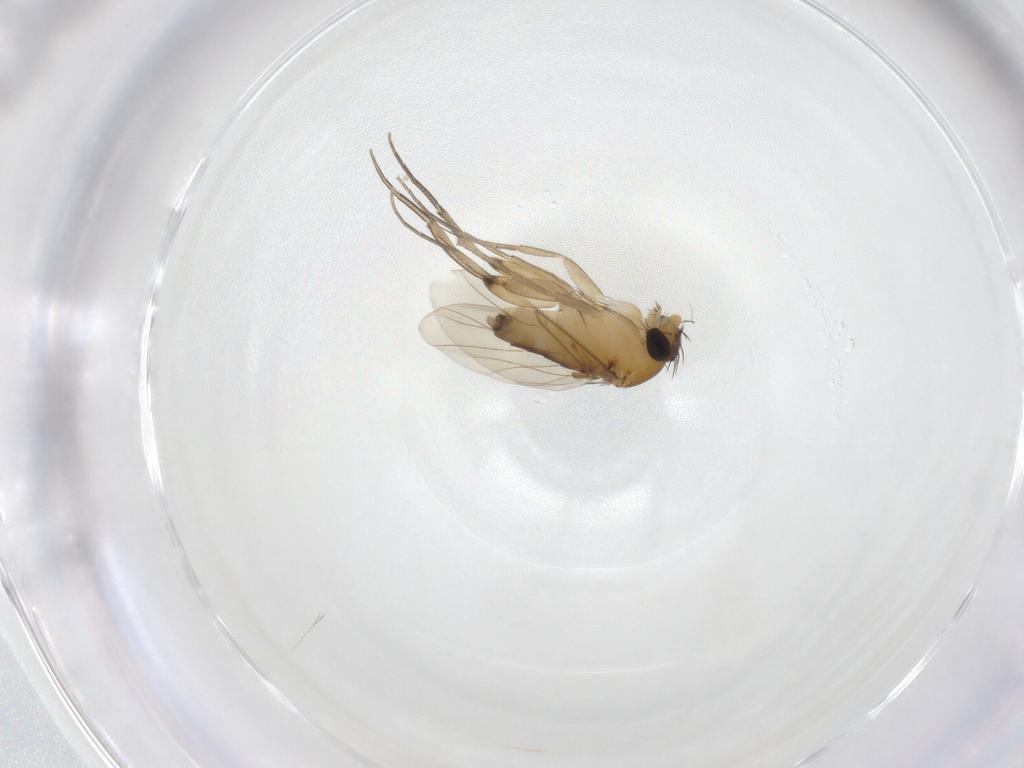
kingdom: Animalia
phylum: Arthropoda
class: Insecta
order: Diptera
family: Phoridae
